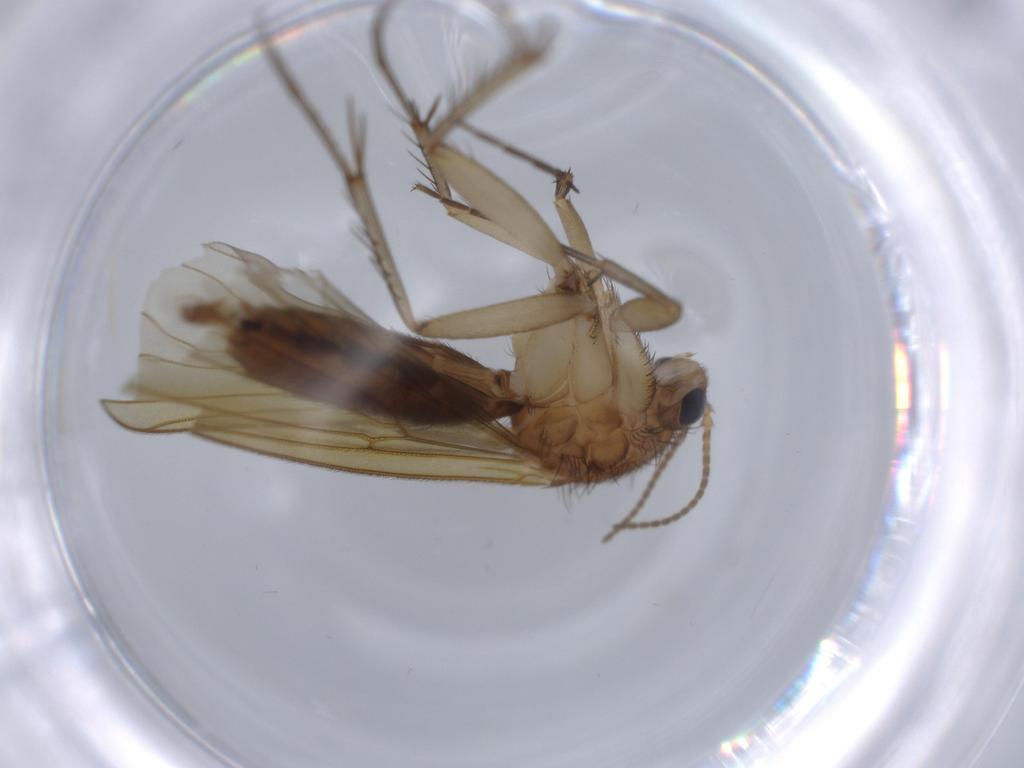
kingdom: Animalia
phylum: Arthropoda
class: Insecta
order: Diptera
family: Mycetophilidae
